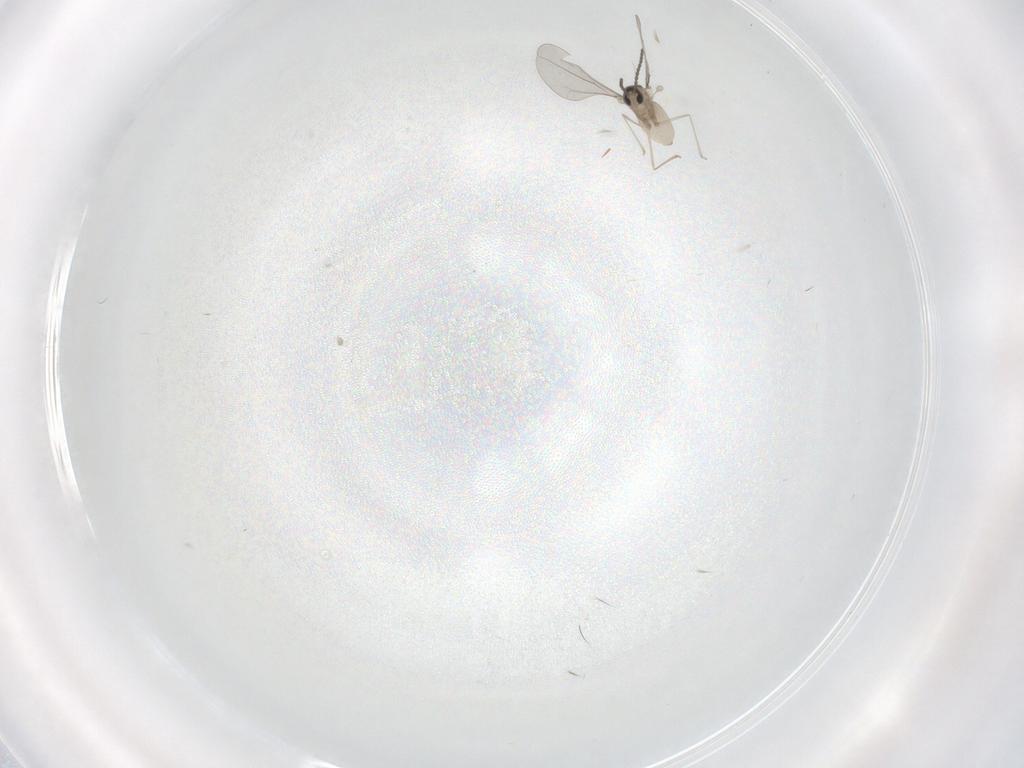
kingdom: Animalia
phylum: Arthropoda
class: Insecta
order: Diptera
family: Cecidomyiidae
